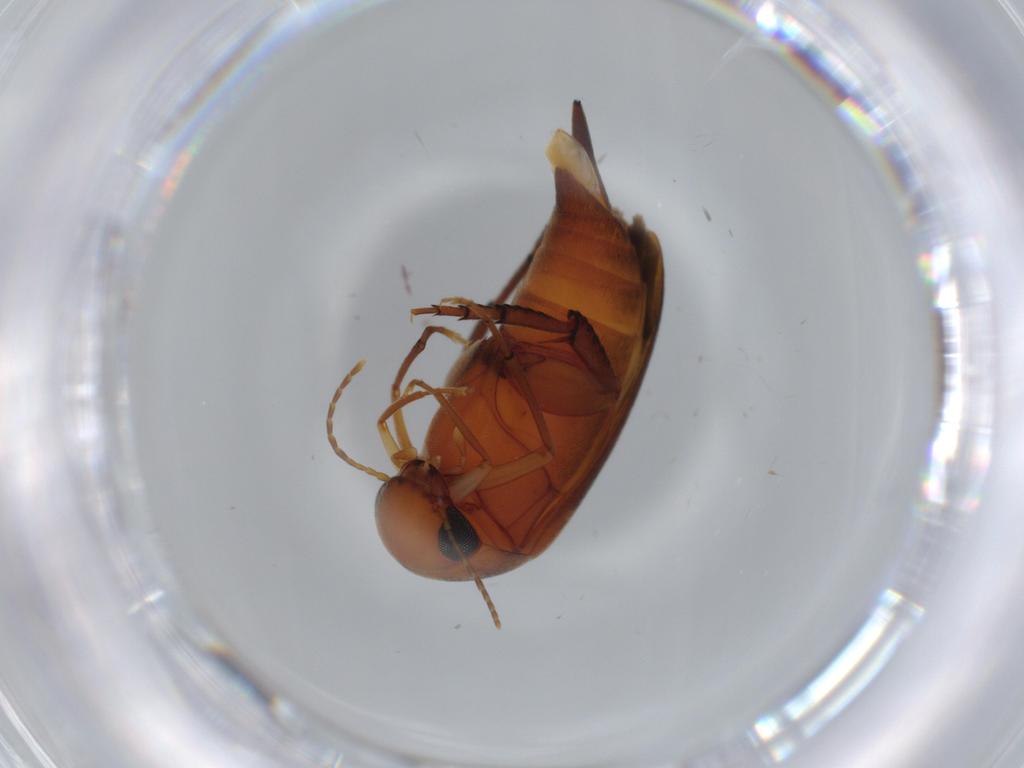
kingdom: Animalia
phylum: Arthropoda
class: Insecta
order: Coleoptera
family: Mordellidae
